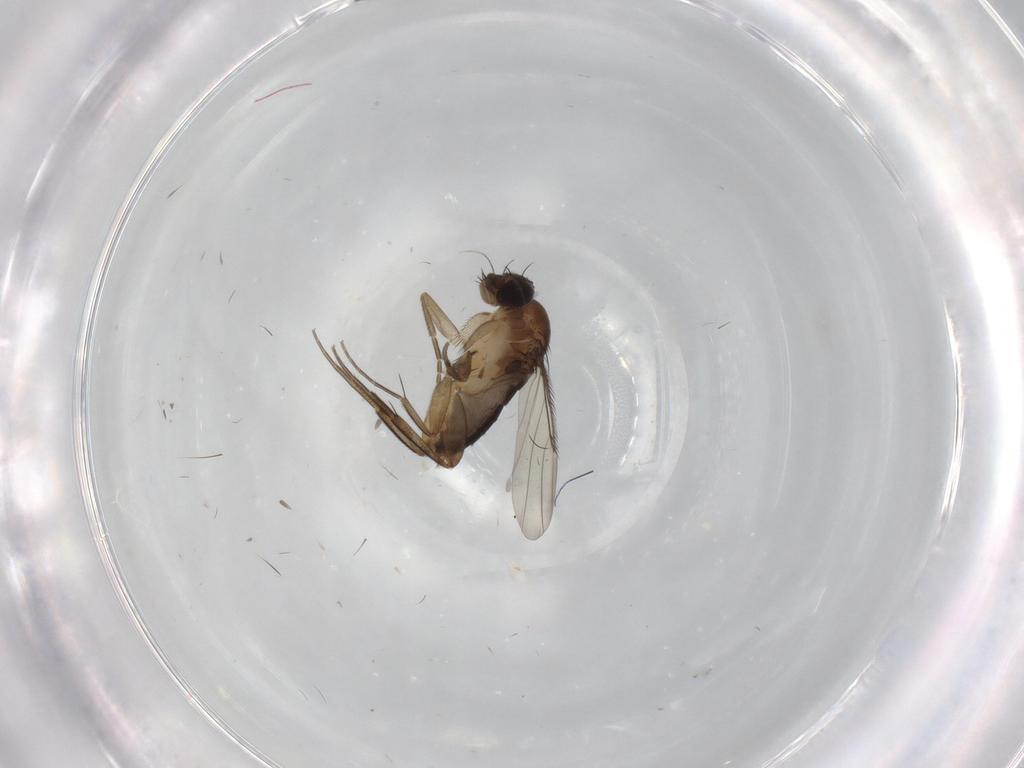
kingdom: Animalia
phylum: Arthropoda
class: Insecta
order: Diptera
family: Phoridae
